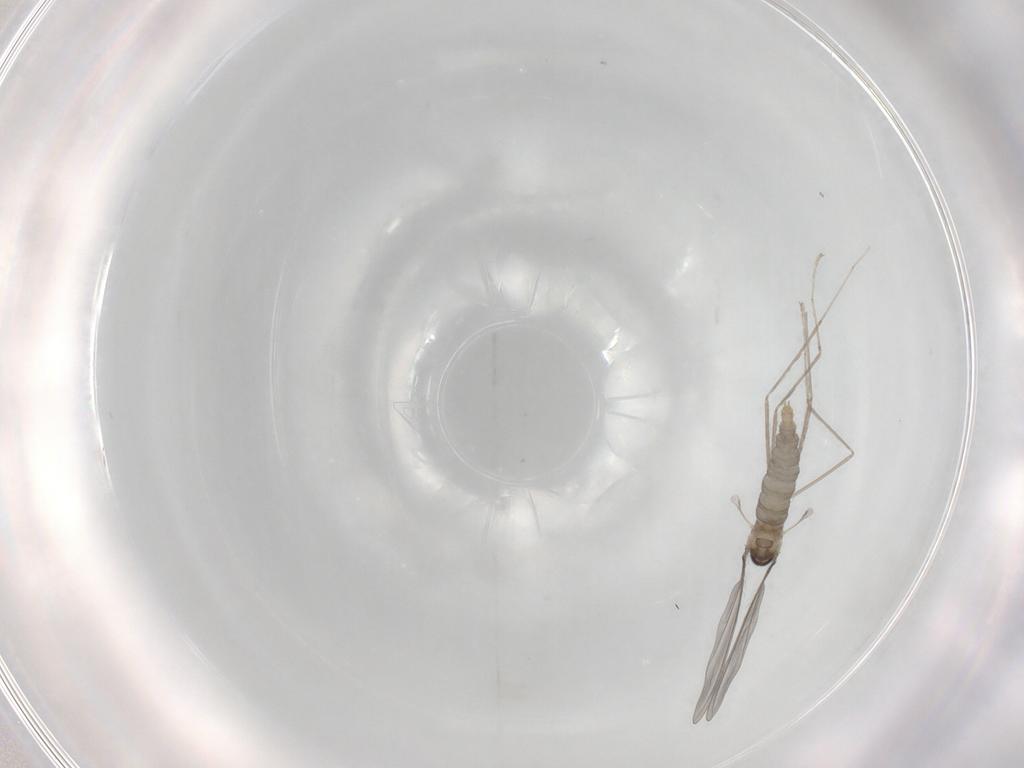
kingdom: Animalia
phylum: Arthropoda
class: Insecta
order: Diptera
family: Phoridae
